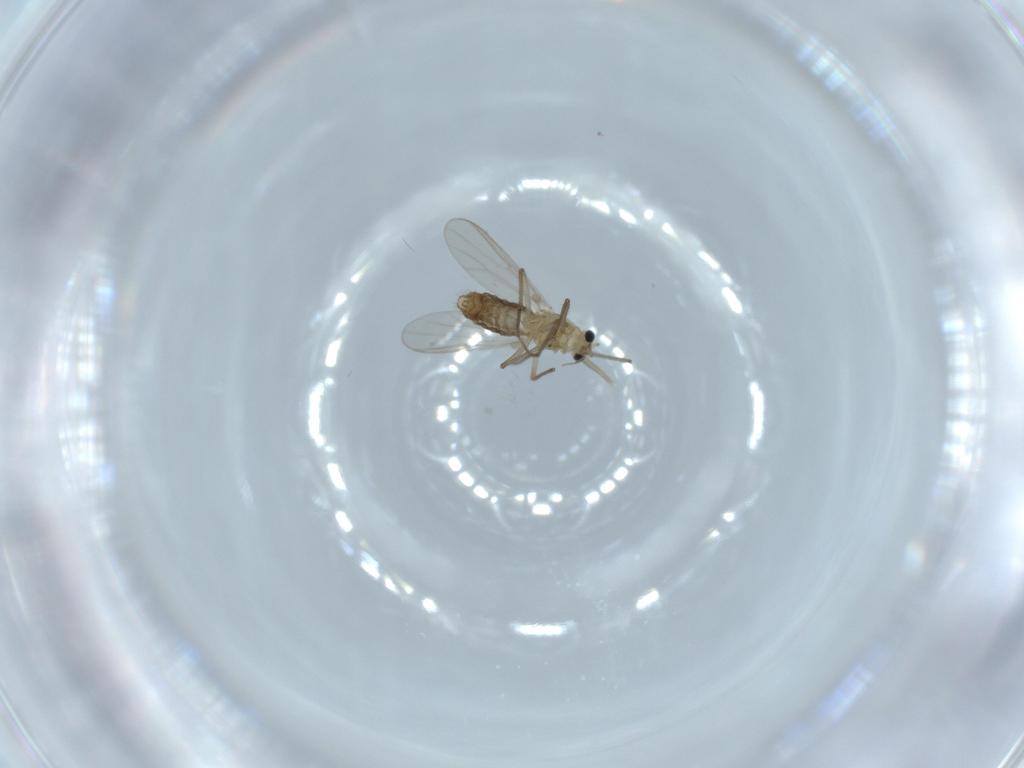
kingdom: Animalia
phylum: Arthropoda
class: Insecta
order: Diptera
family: Chironomidae
